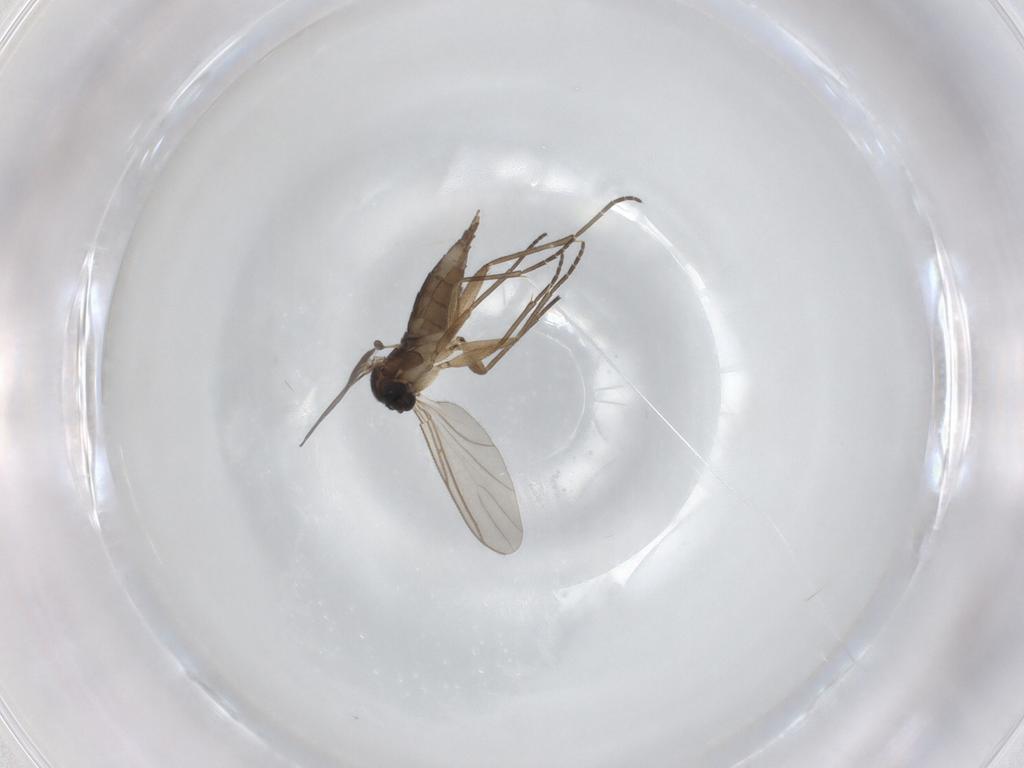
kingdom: Animalia
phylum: Arthropoda
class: Insecta
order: Diptera
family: Sciaridae
